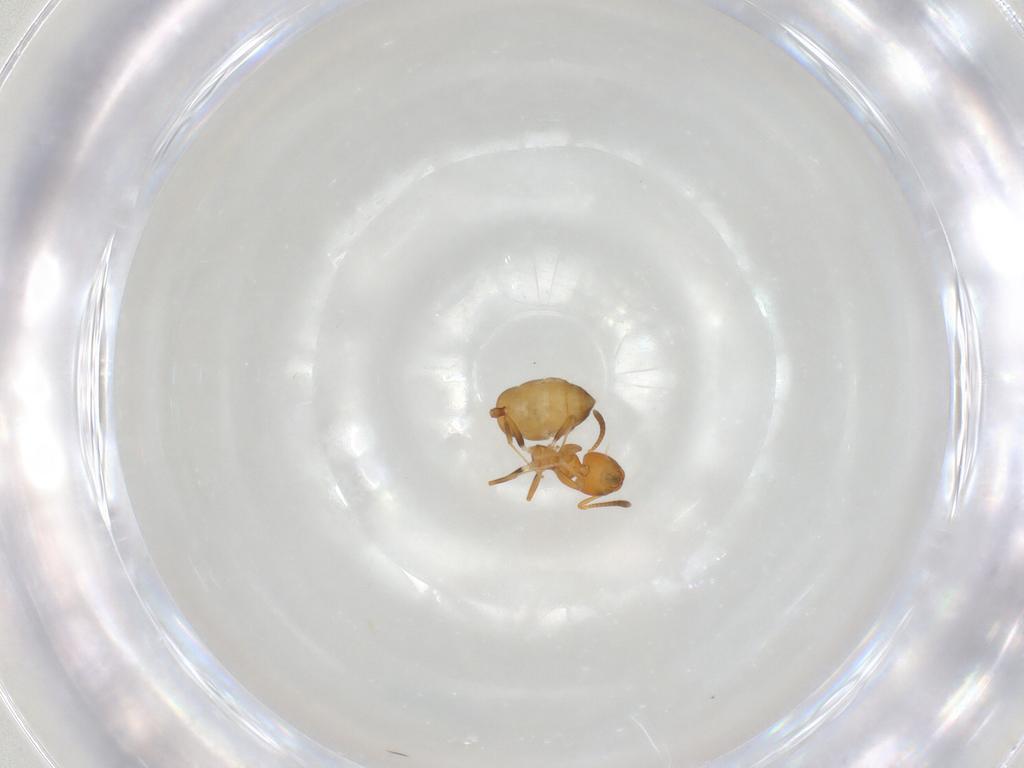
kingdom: Animalia
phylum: Arthropoda
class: Insecta
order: Hymenoptera
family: Formicidae
